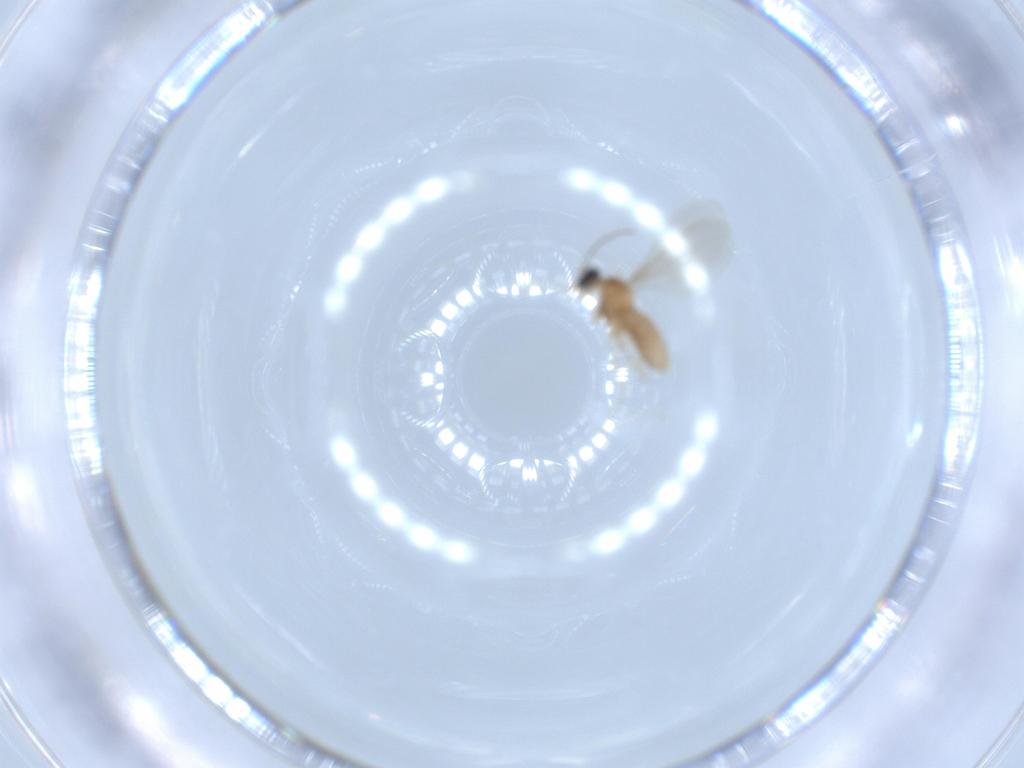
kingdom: Animalia
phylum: Arthropoda
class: Insecta
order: Diptera
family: Cecidomyiidae
